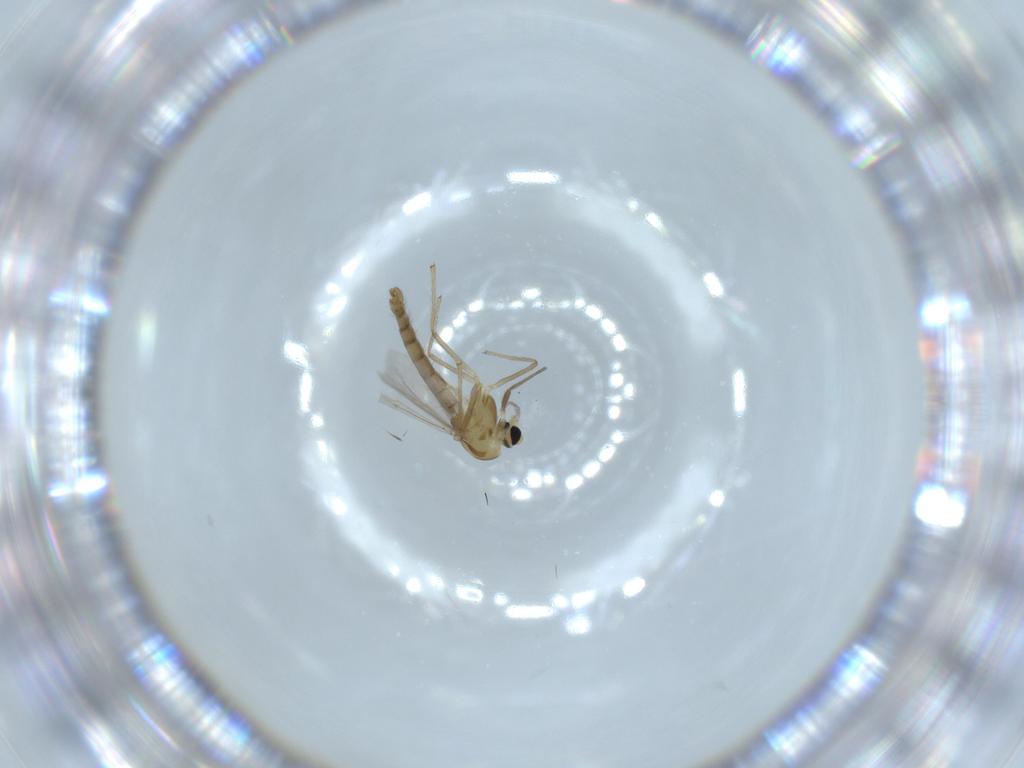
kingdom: Animalia
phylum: Arthropoda
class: Insecta
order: Diptera
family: Chironomidae
